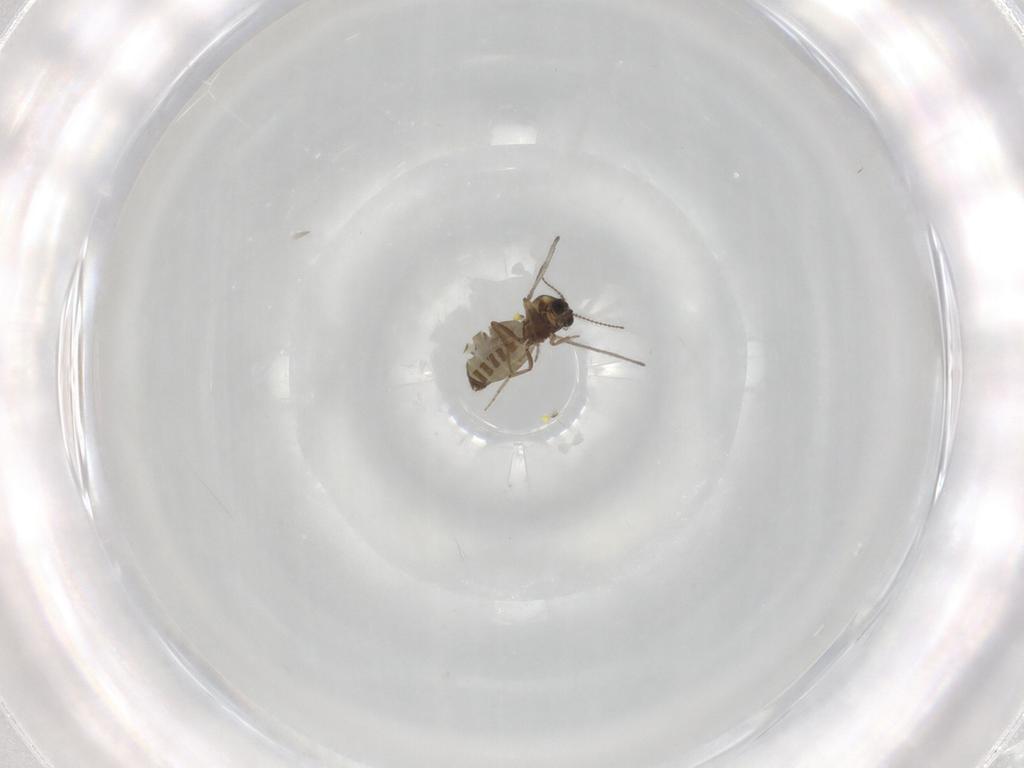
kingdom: Animalia
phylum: Arthropoda
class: Insecta
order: Diptera
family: Ceratopogonidae
